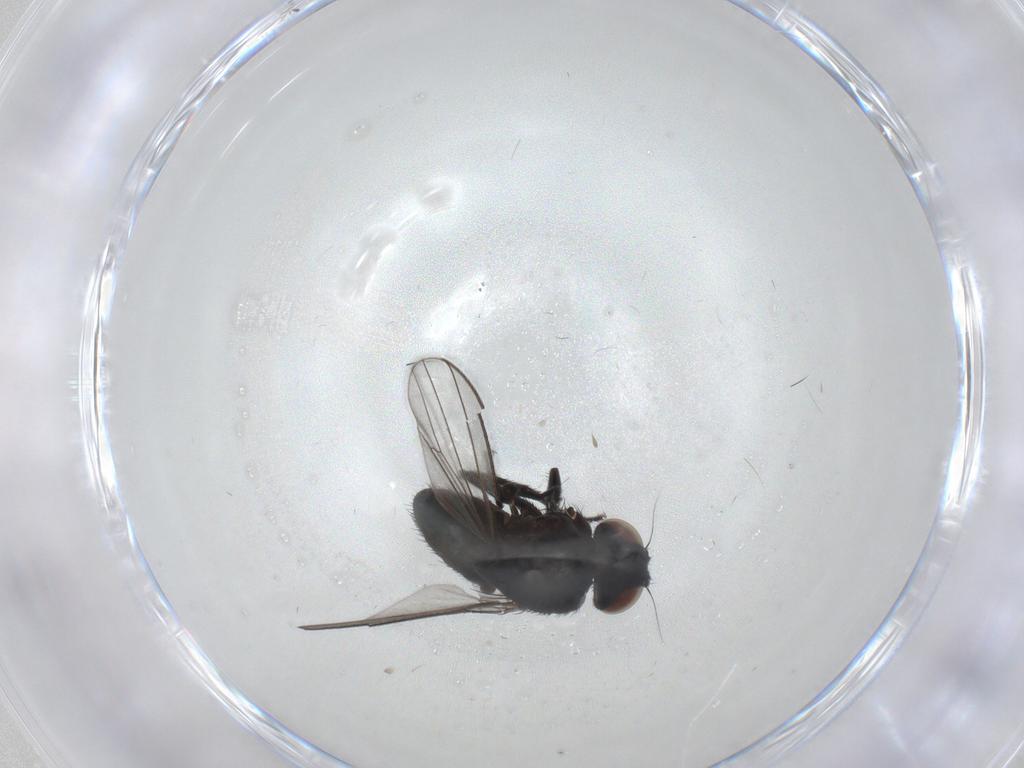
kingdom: Animalia
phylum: Arthropoda
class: Insecta
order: Diptera
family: Milichiidae
